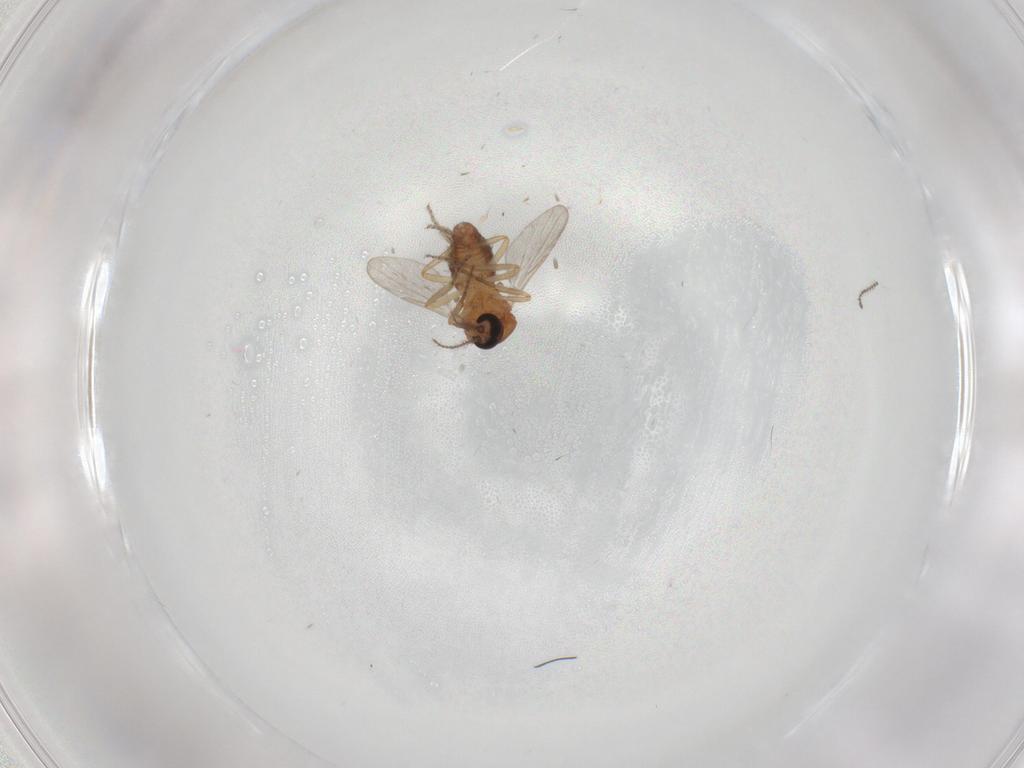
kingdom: Animalia
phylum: Arthropoda
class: Insecta
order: Diptera
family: Ceratopogonidae
